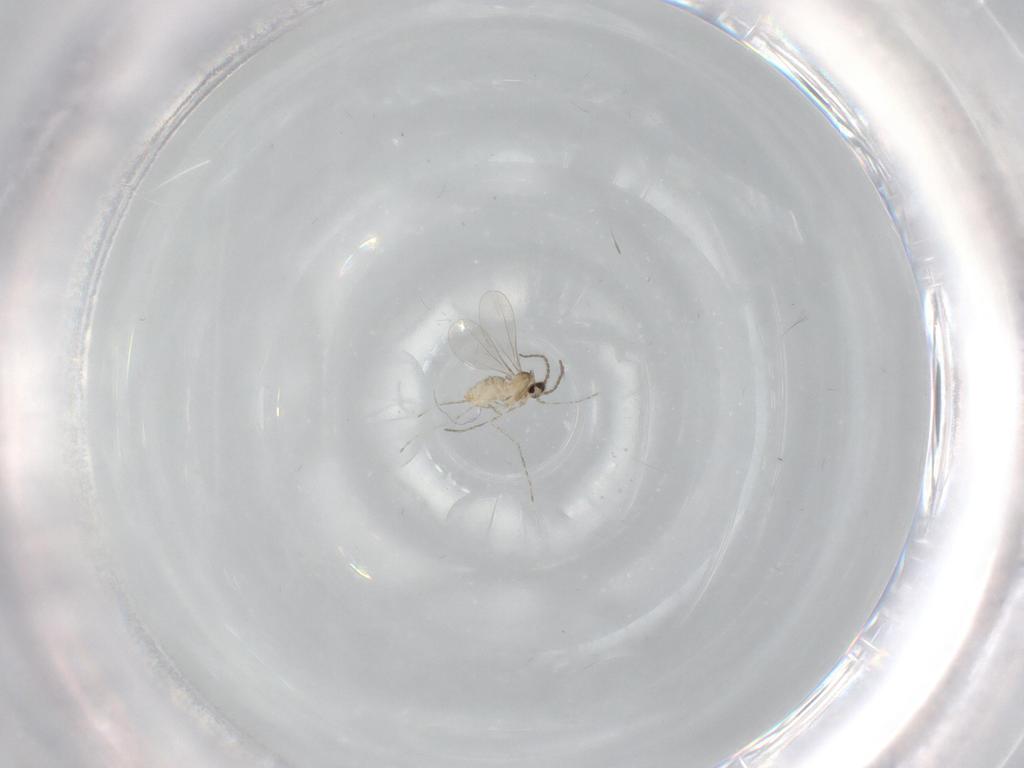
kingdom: Animalia
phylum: Arthropoda
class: Insecta
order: Diptera
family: Cecidomyiidae
